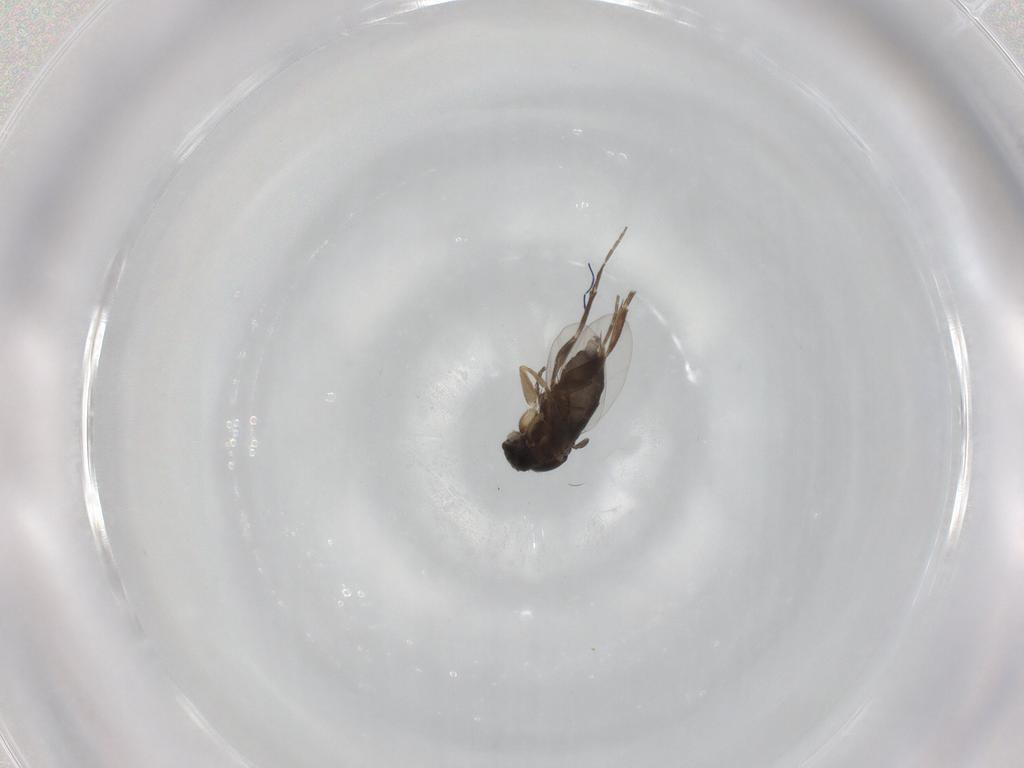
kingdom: Animalia
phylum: Arthropoda
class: Insecta
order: Diptera
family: Phoridae
